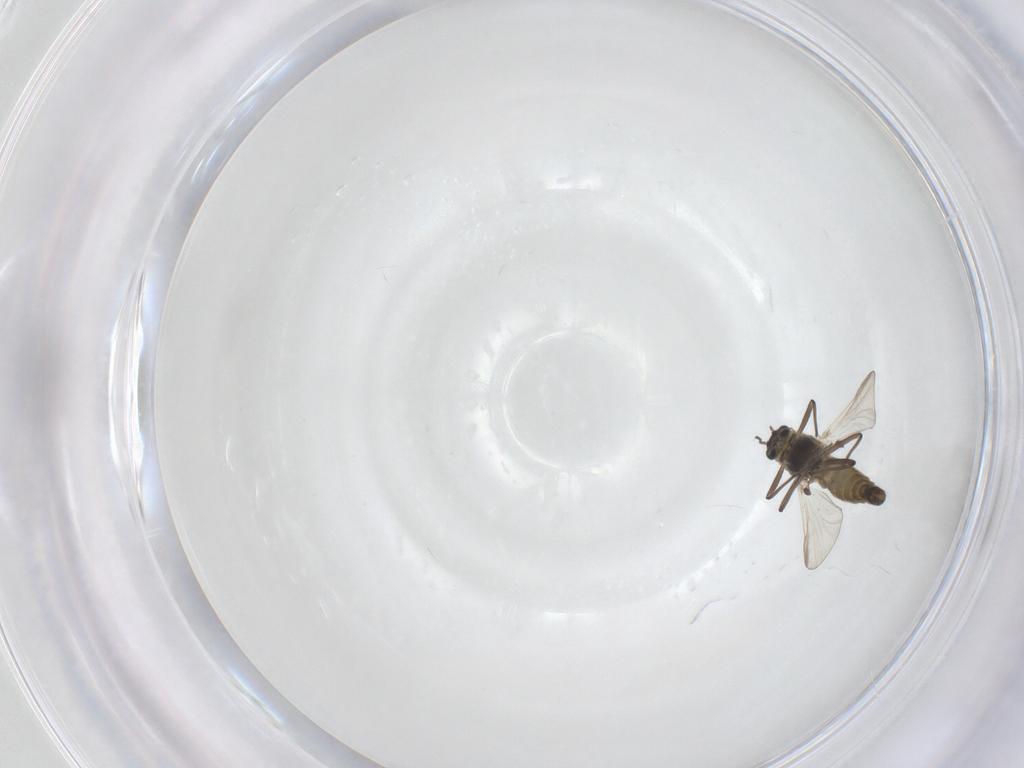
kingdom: Animalia
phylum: Arthropoda
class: Insecta
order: Diptera
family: Chironomidae
